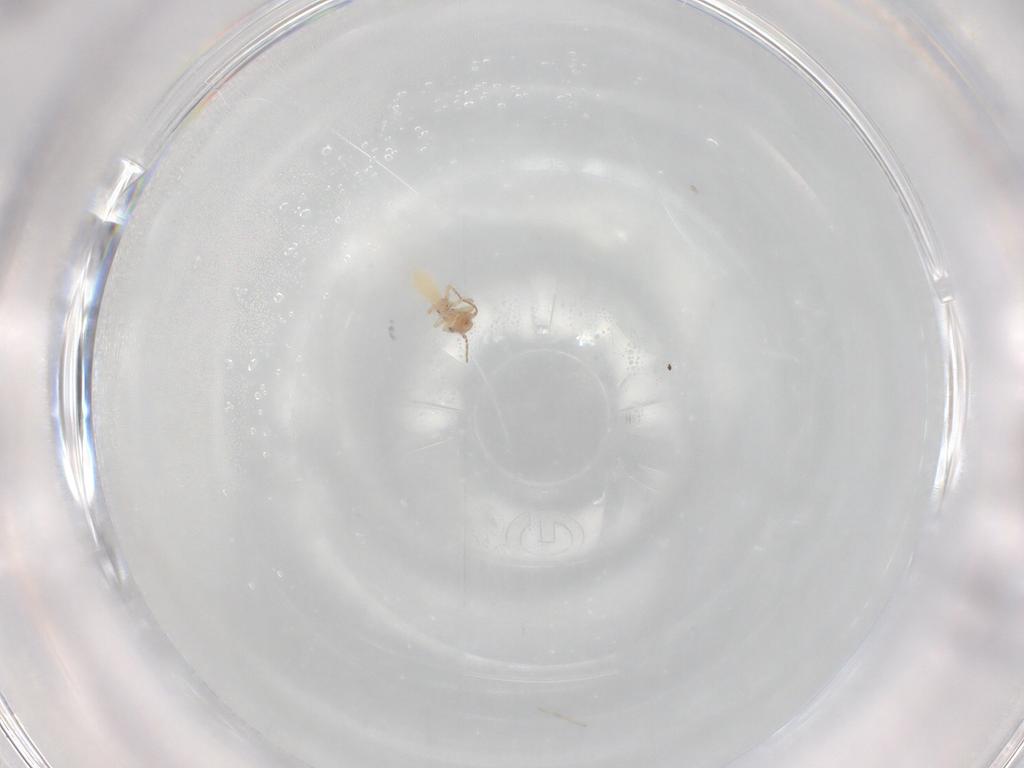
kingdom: Animalia
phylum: Arthropoda
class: Insecta
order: Psocodea
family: Lepidopsocidae
